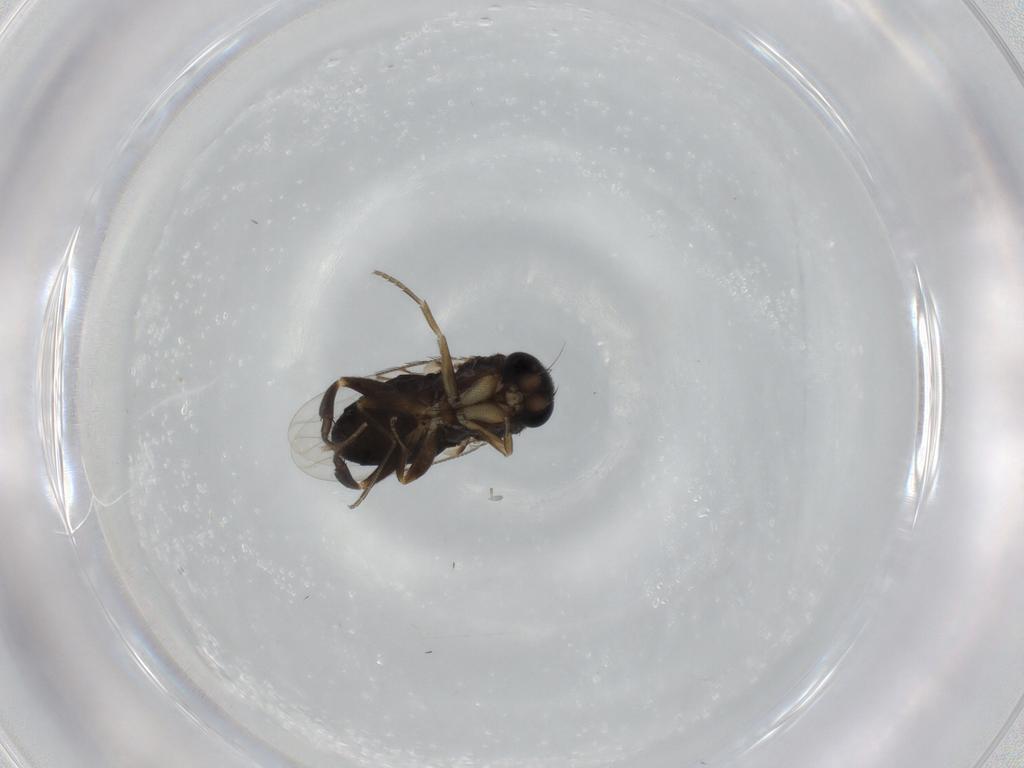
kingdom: Animalia
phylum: Arthropoda
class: Insecta
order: Diptera
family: Phoridae
